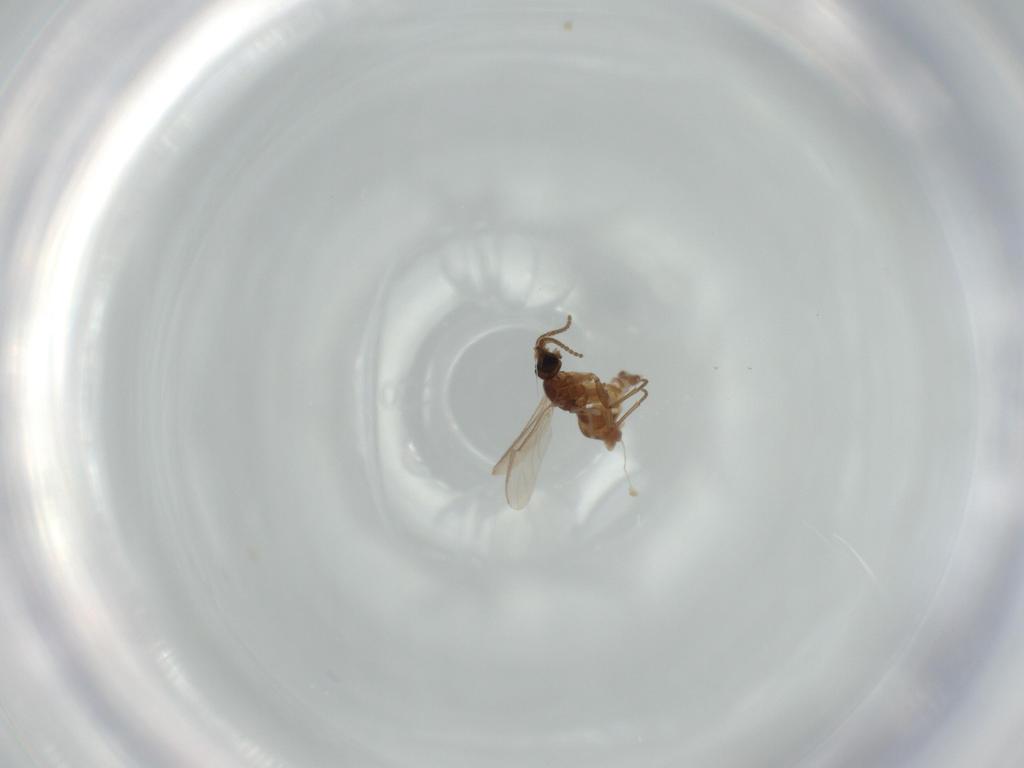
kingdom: Animalia
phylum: Arthropoda
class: Insecta
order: Diptera
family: Sciaridae
